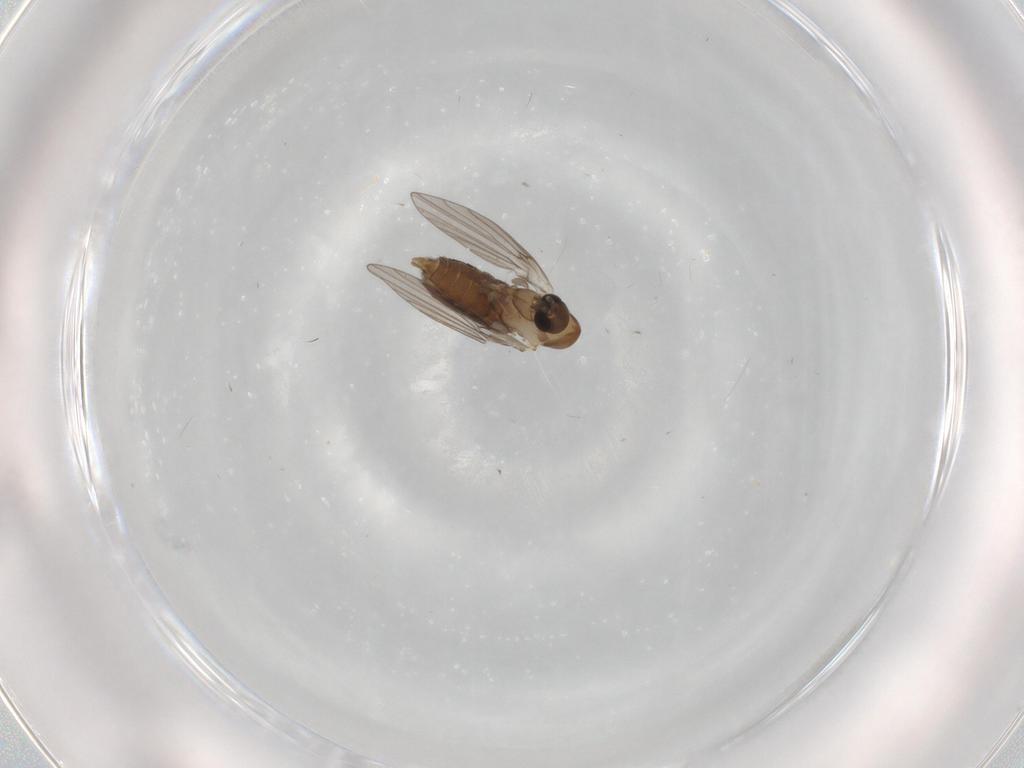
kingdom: Animalia
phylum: Arthropoda
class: Insecta
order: Diptera
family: Psychodidae
